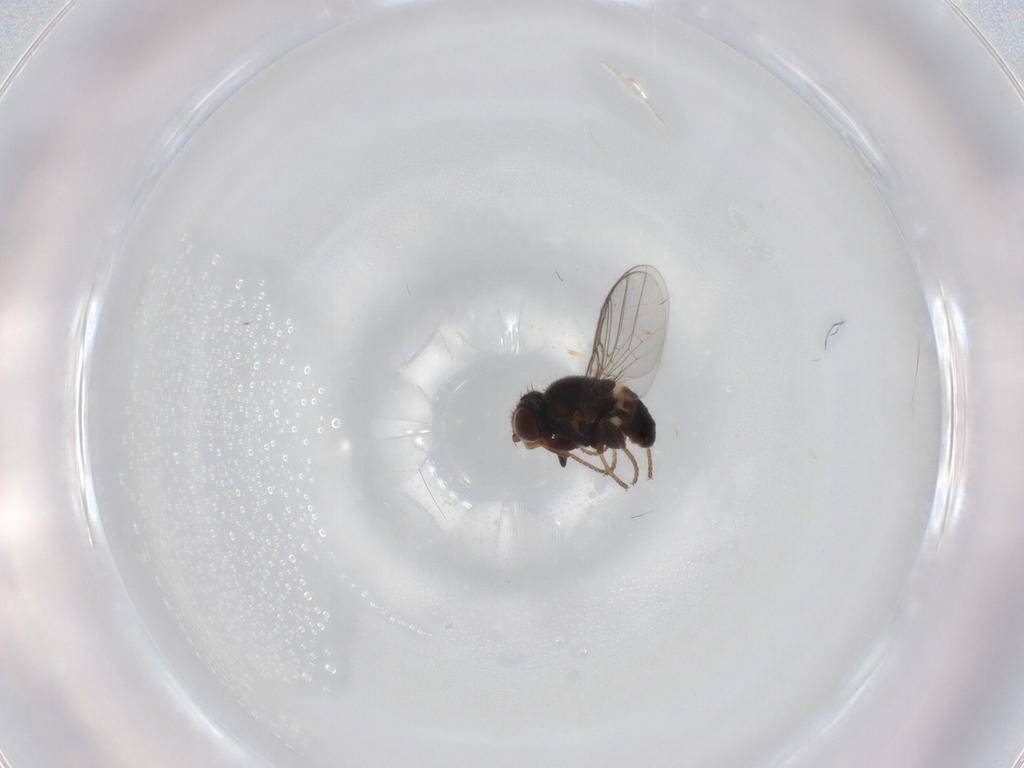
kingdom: Animalia
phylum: Arthropoda
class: Insecta
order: Diptera
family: Chloropidae
